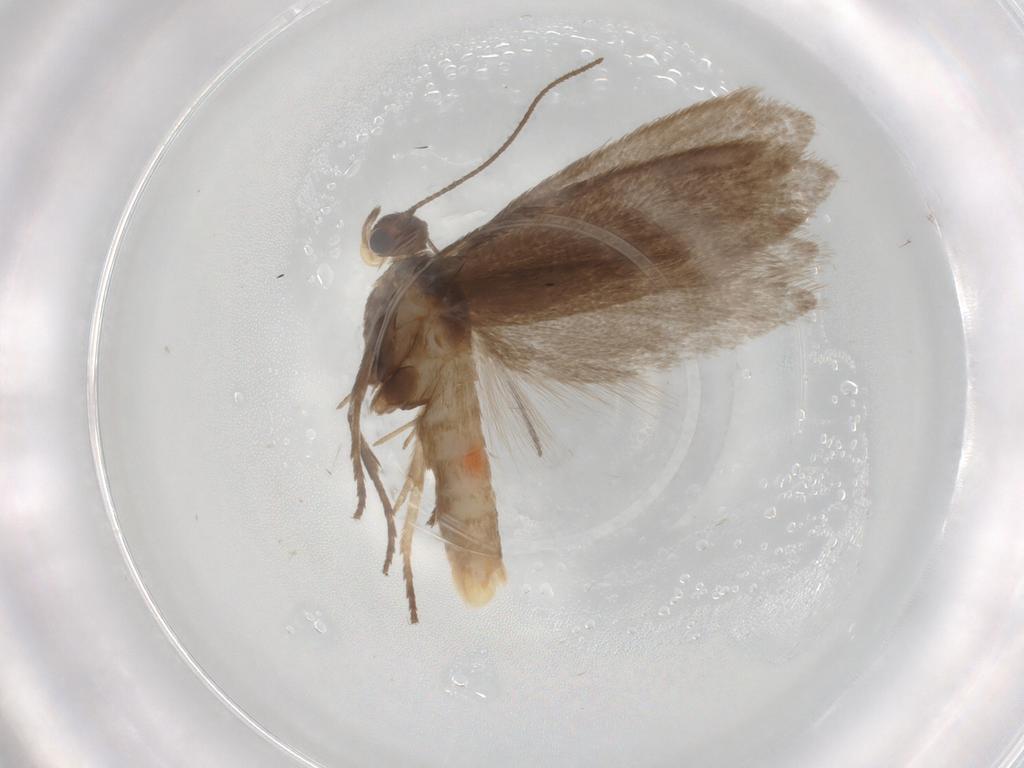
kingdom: Animalia
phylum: Arthropoda
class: Insecta
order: Lepidoptera
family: Limacodidae
